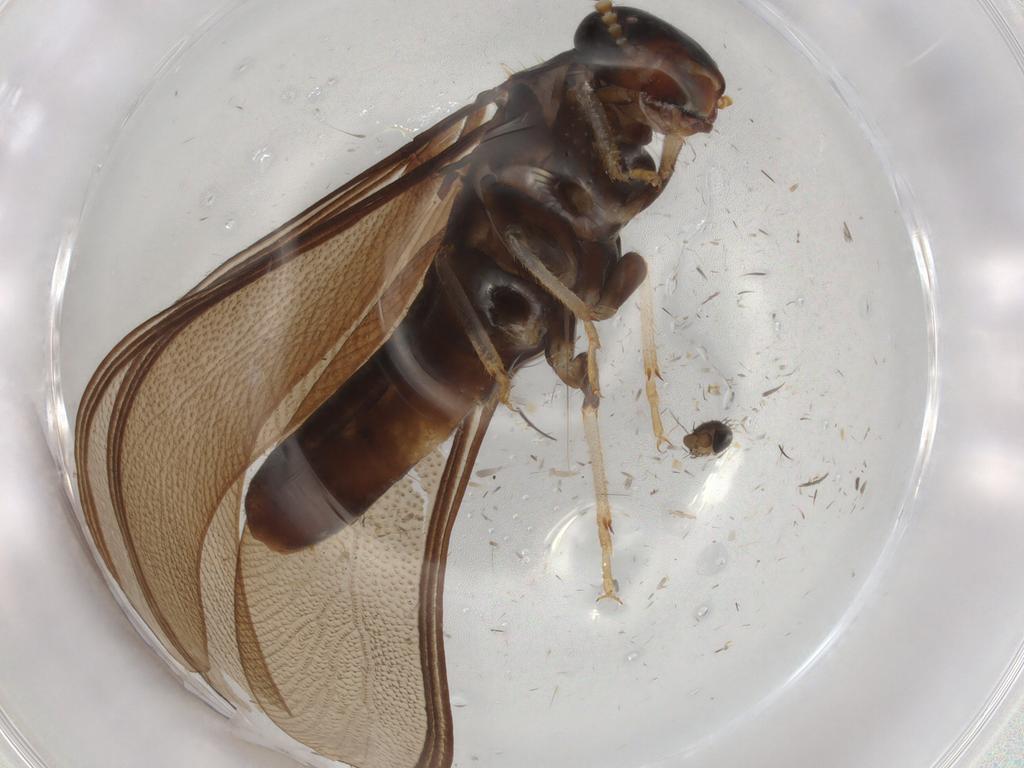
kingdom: Animalia
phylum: Arthropoda
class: Insecta
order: Blattodea
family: Kalotermitidae
